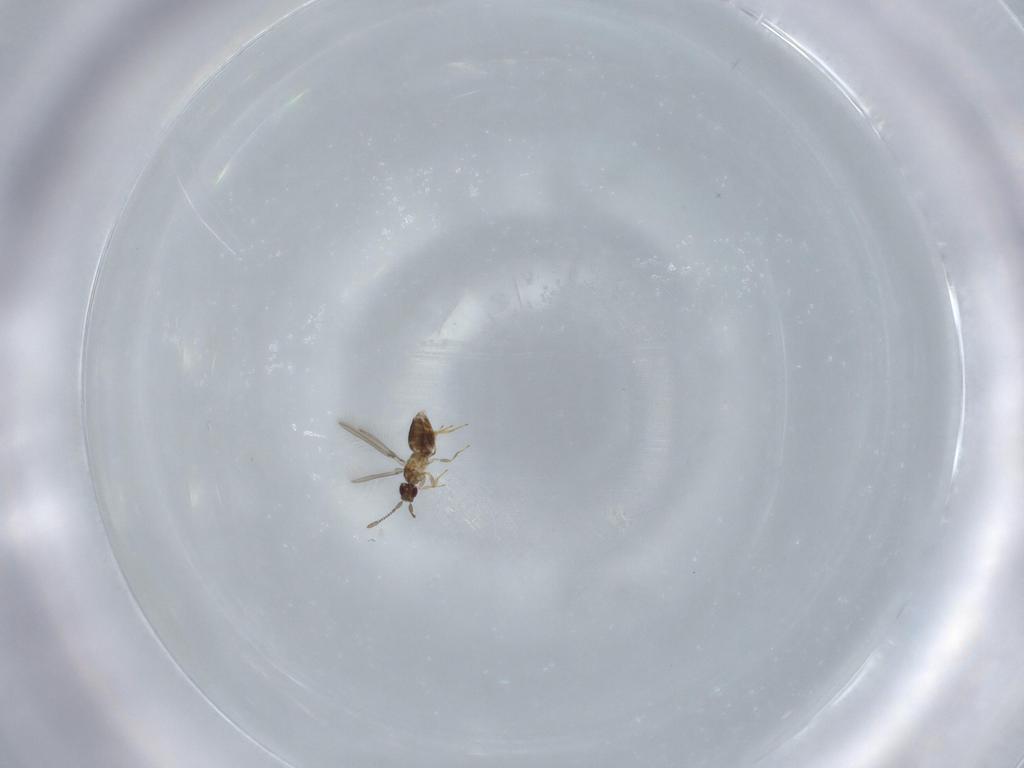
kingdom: Animalia
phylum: Arthropoda
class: Insecta
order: Hymenoptera
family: Mymaridae
